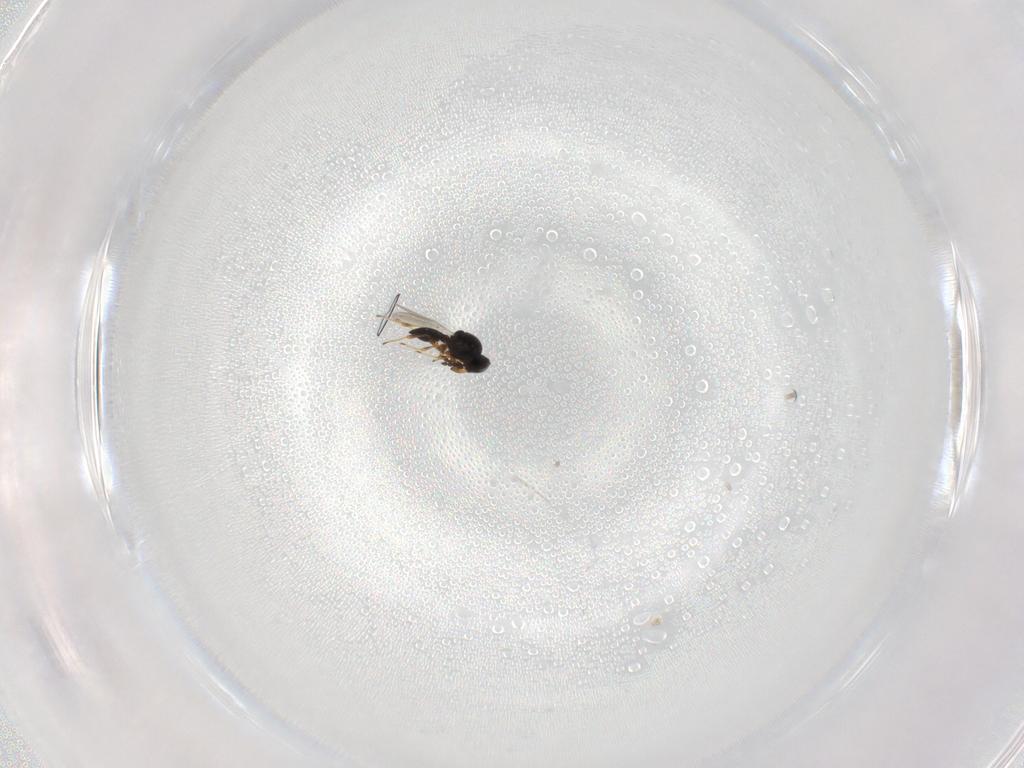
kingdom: Animalia
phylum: Arthropoda
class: Insecta
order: Hymenoptera
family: Platygastridae
